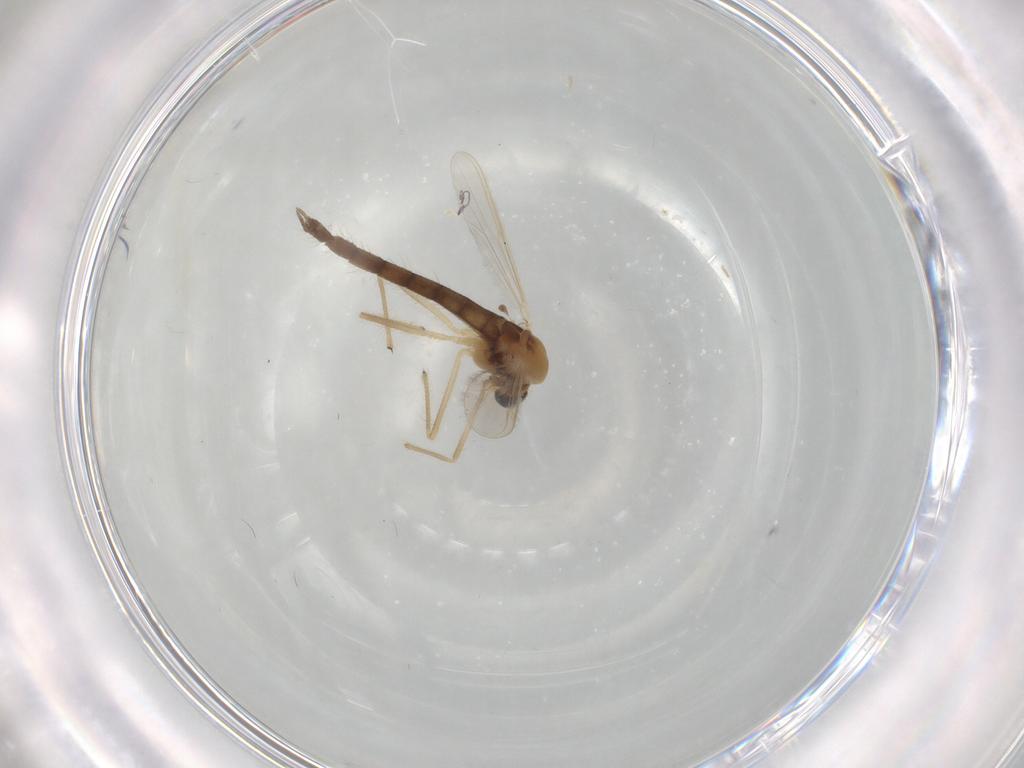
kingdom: Animalia
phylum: Arthropoda
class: Insecta
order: Diptera
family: Chironomidae
